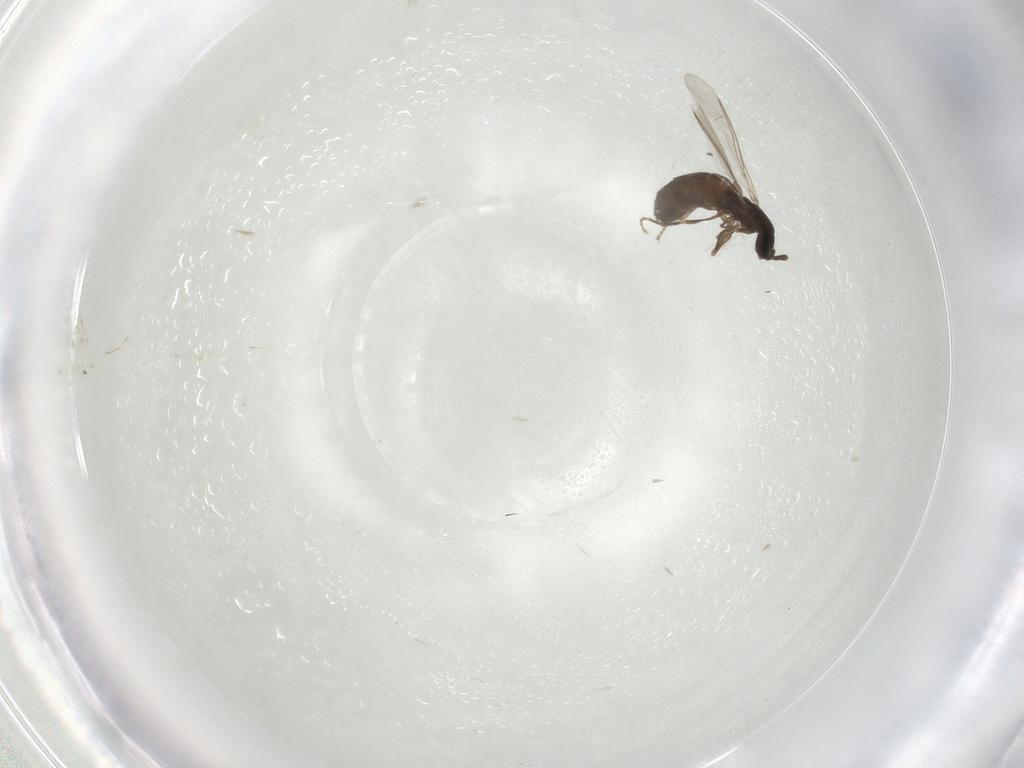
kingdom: Animalia
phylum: Arthropoda
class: Insecta
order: Diptera
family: Scatopsidae
